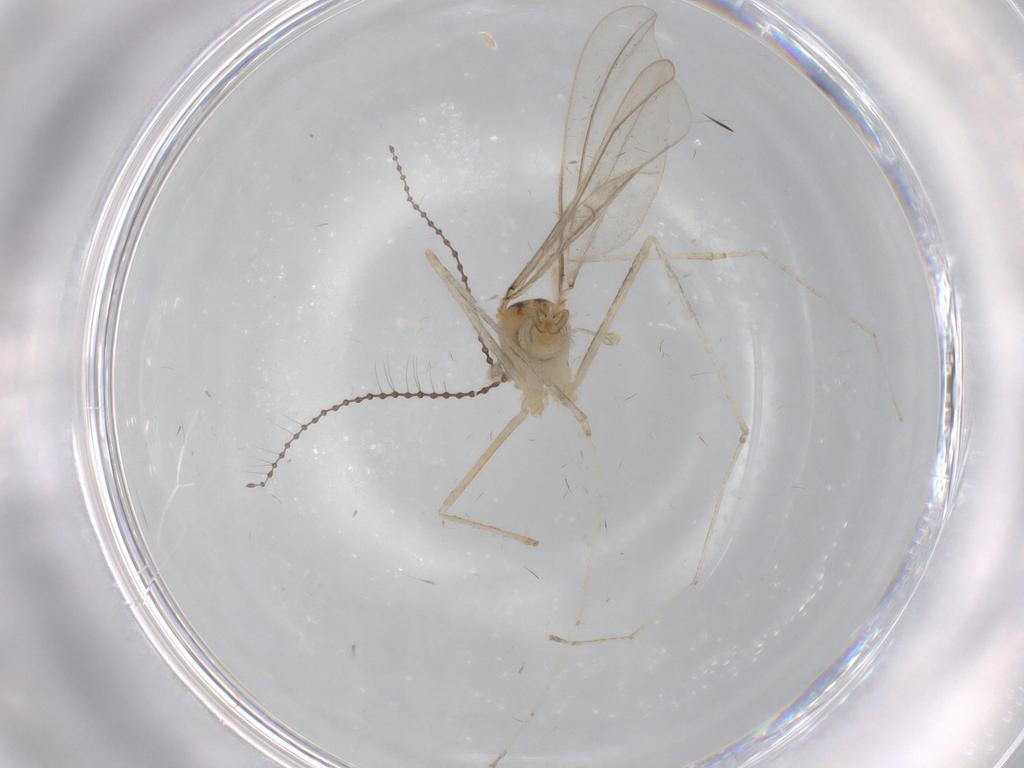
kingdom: Animalia
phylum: Arthropoda
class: Insecta
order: Diptera
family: Cecidomyiidae
